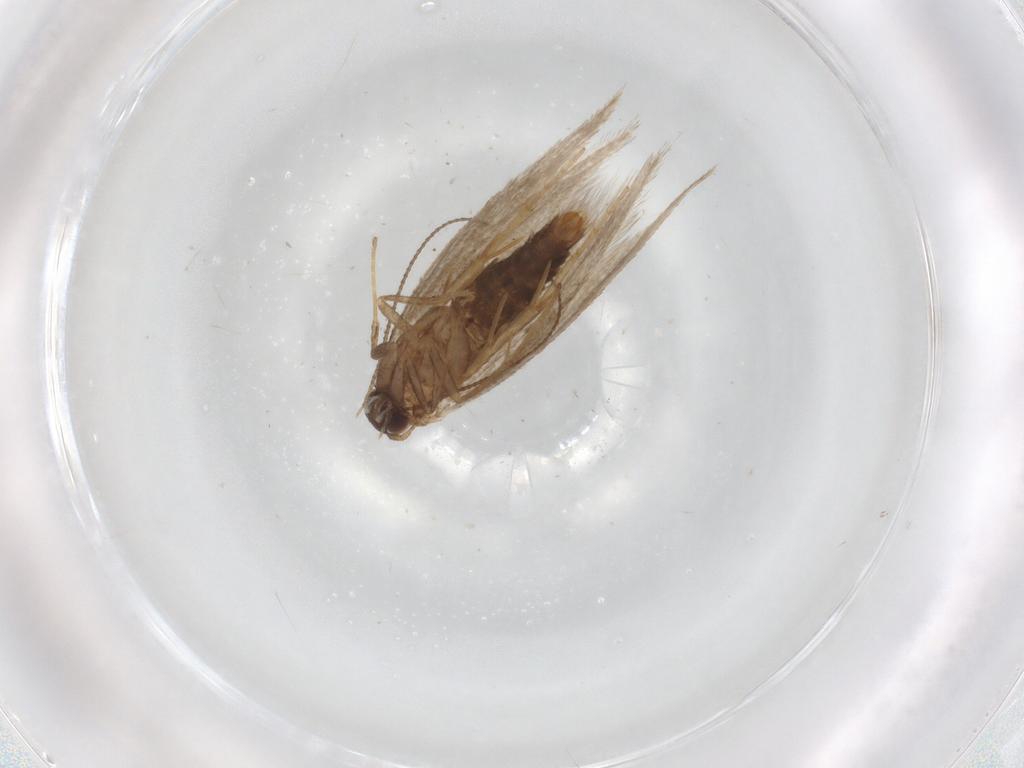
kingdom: Animalia
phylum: Arthropoda
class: Insecta
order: Lepidoptera
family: Nepticulidae
